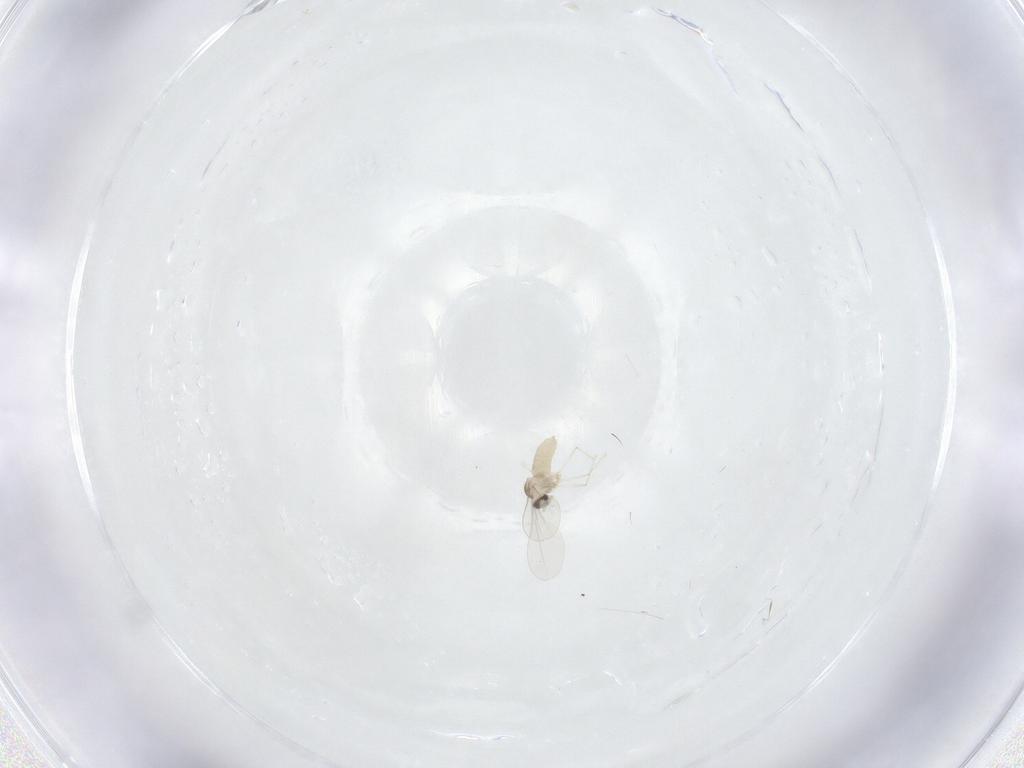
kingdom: Animalia
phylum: Arthropoda
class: Insecta
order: Diptera
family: Cecidomyiidae
